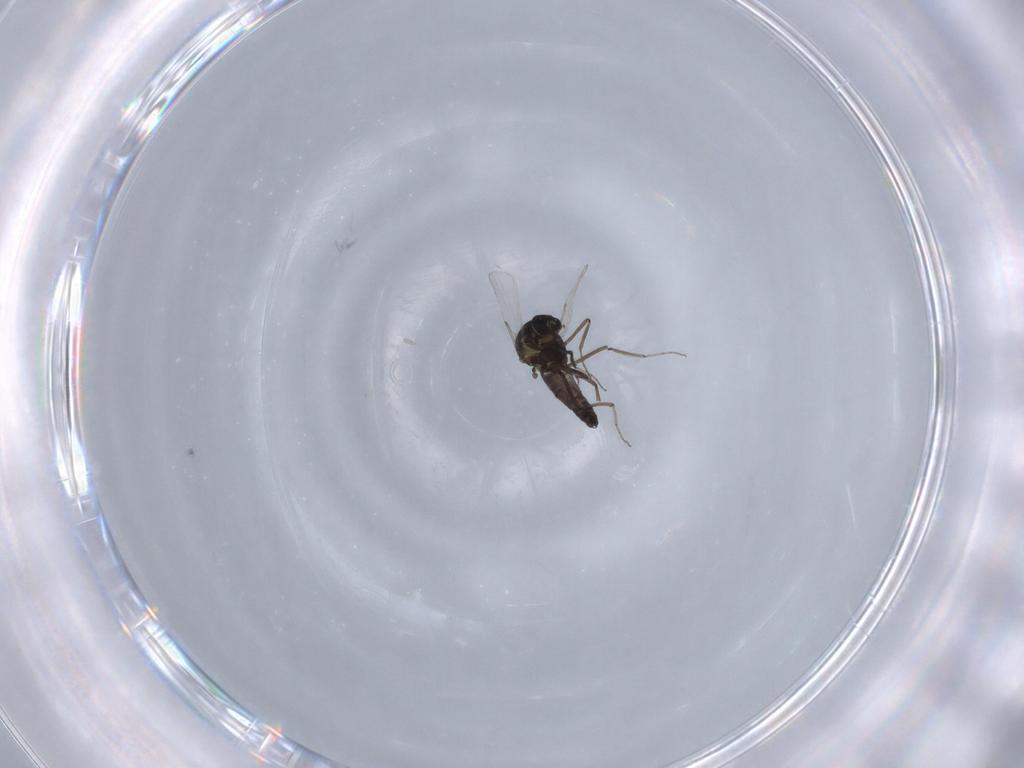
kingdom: Animalia
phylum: Arthropoda
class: Insecta
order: Diptera
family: Ceratopogonidae
